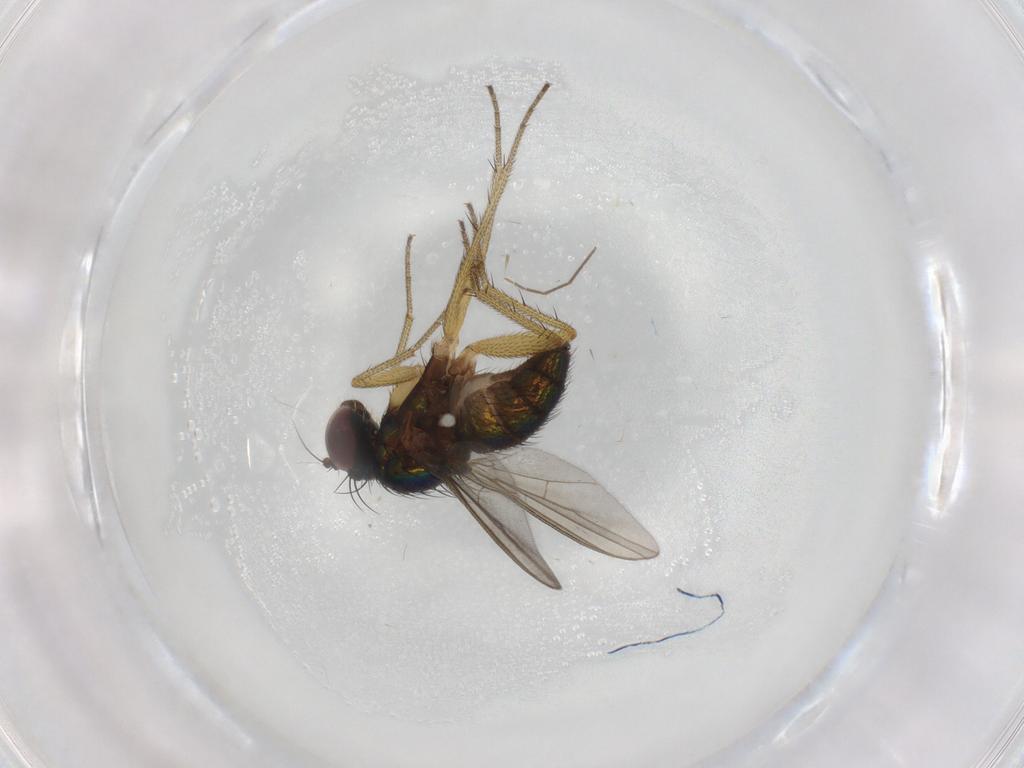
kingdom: Animalia
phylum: Arthropoda
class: Insecta
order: Diptera
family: Dolichopodidae
